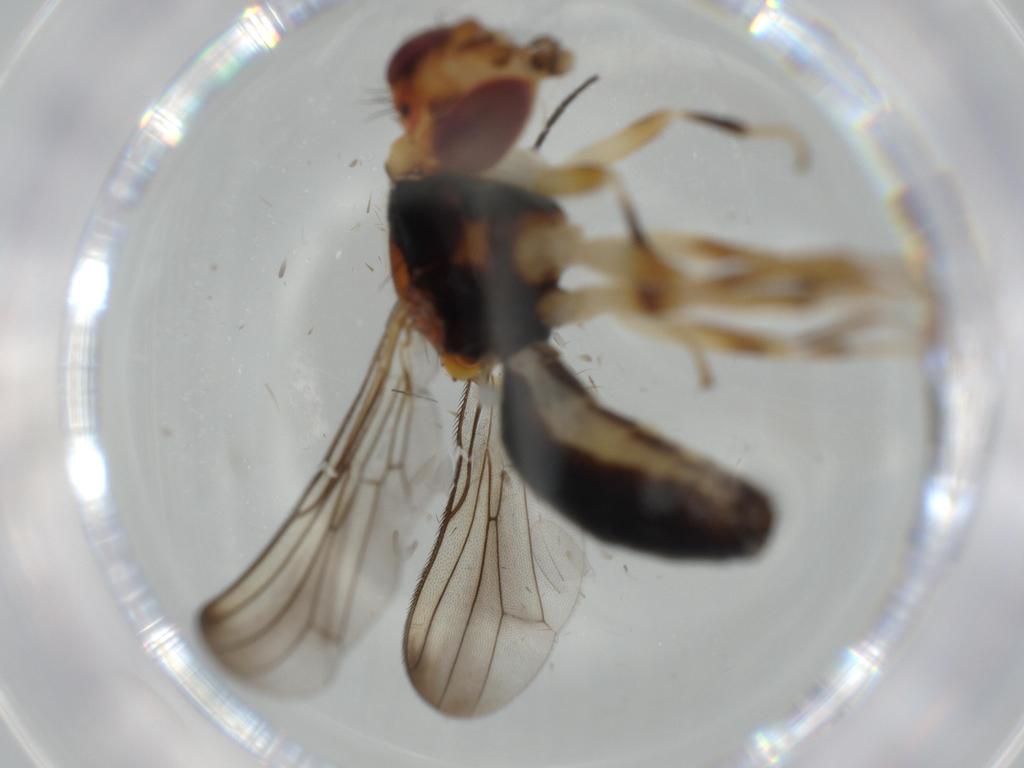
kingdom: Animalia
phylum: Arthropoda
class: Insecta
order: Diptera
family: Psilidae
